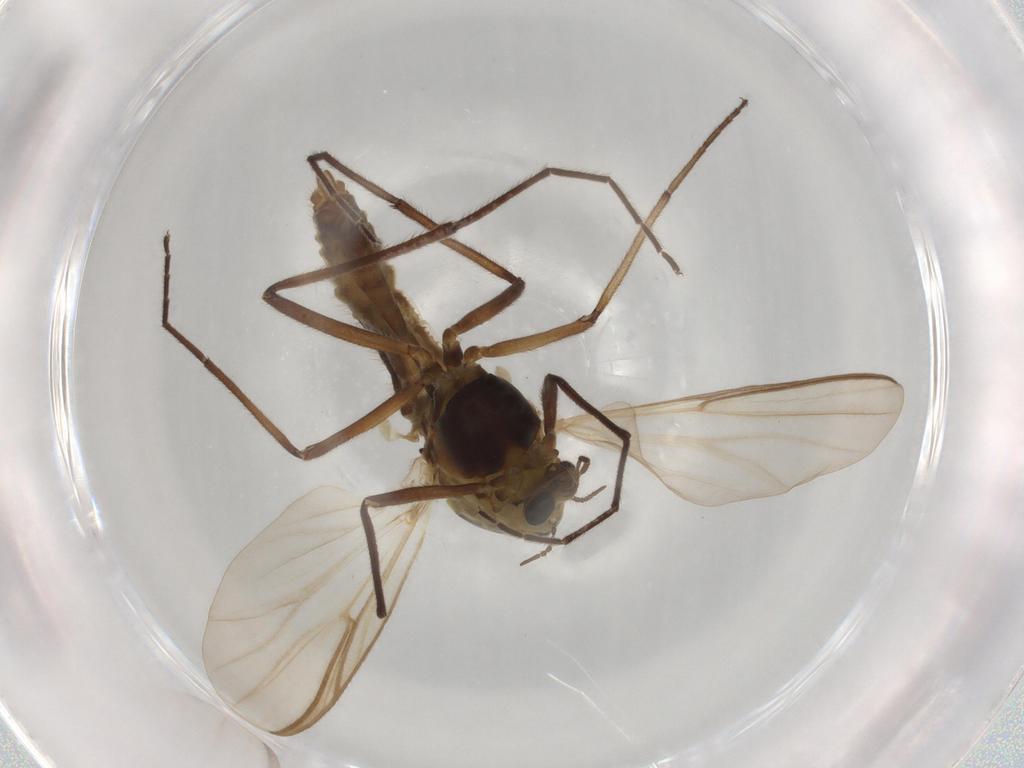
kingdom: Animalia
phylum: Arthropoda
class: Insecta
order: Diptera
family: Drosophilidae
